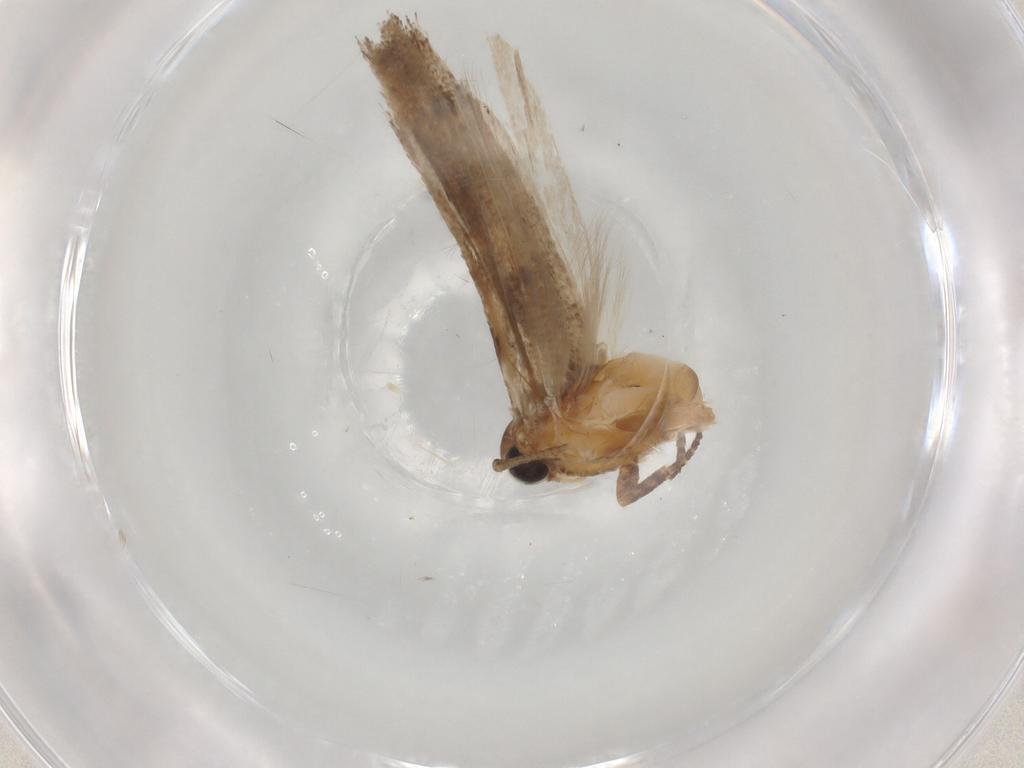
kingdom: Animalia
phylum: Arthropoda
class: Insecta
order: Lepidoptera
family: Gelechiidae
